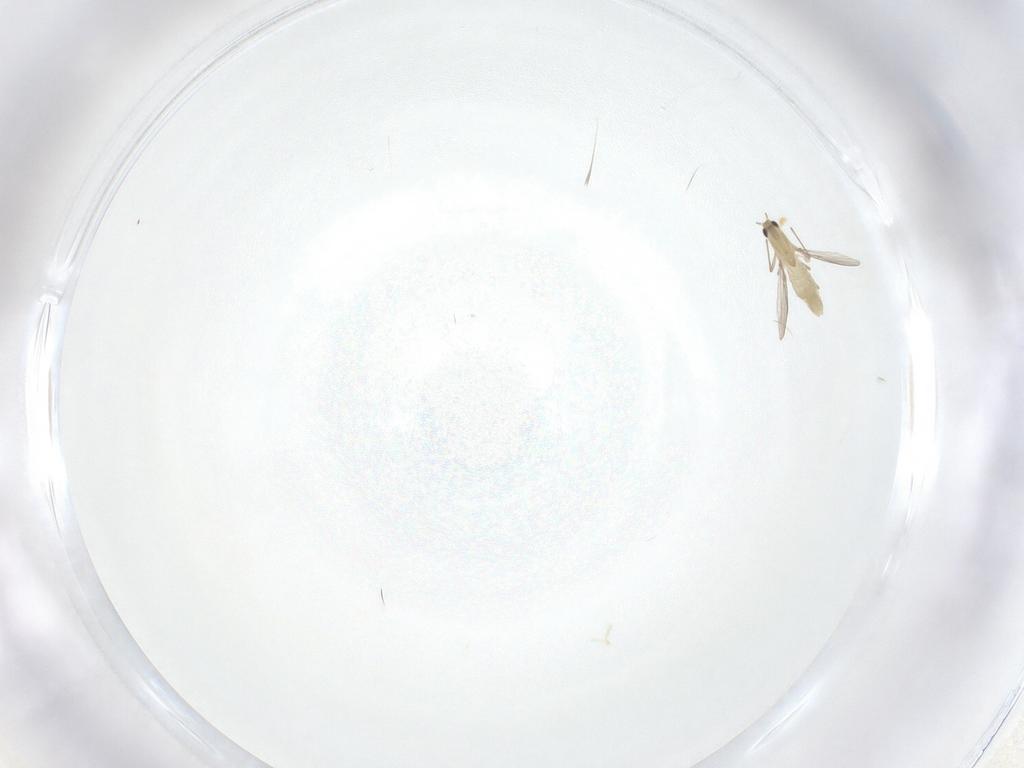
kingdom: Animalia
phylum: Arthropoda
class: Insecta
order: Diptera
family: Chironomidae
